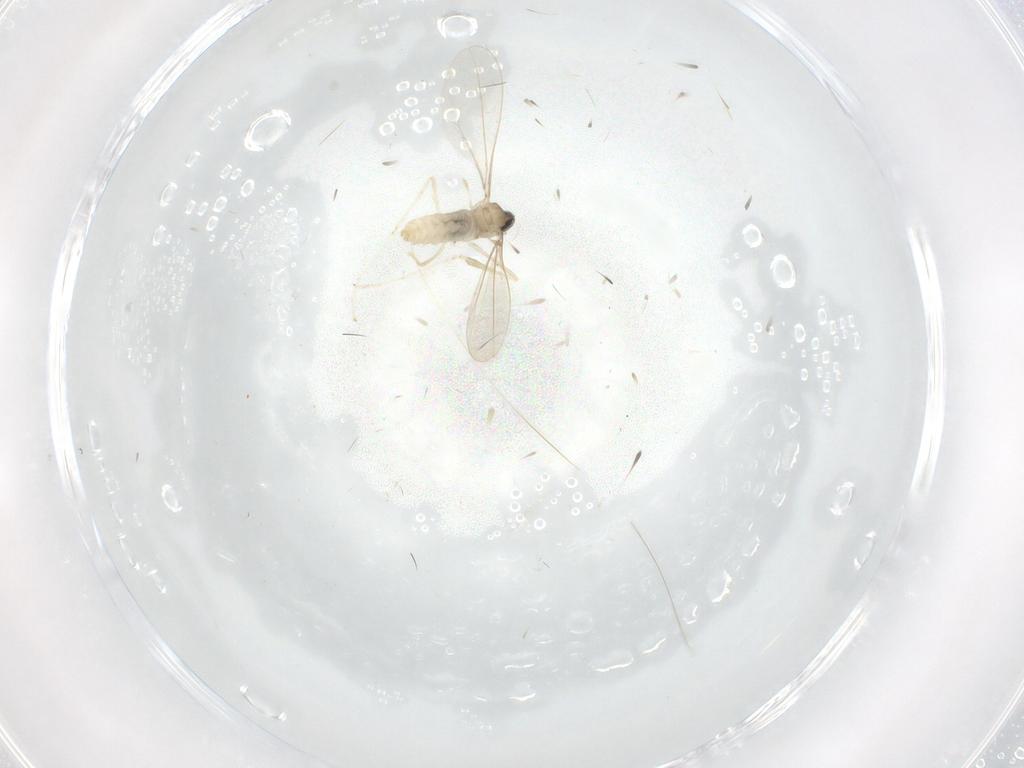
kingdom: Animalia
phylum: Arthropoda
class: Insecta
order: Diptera
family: Cecidomyiidae
